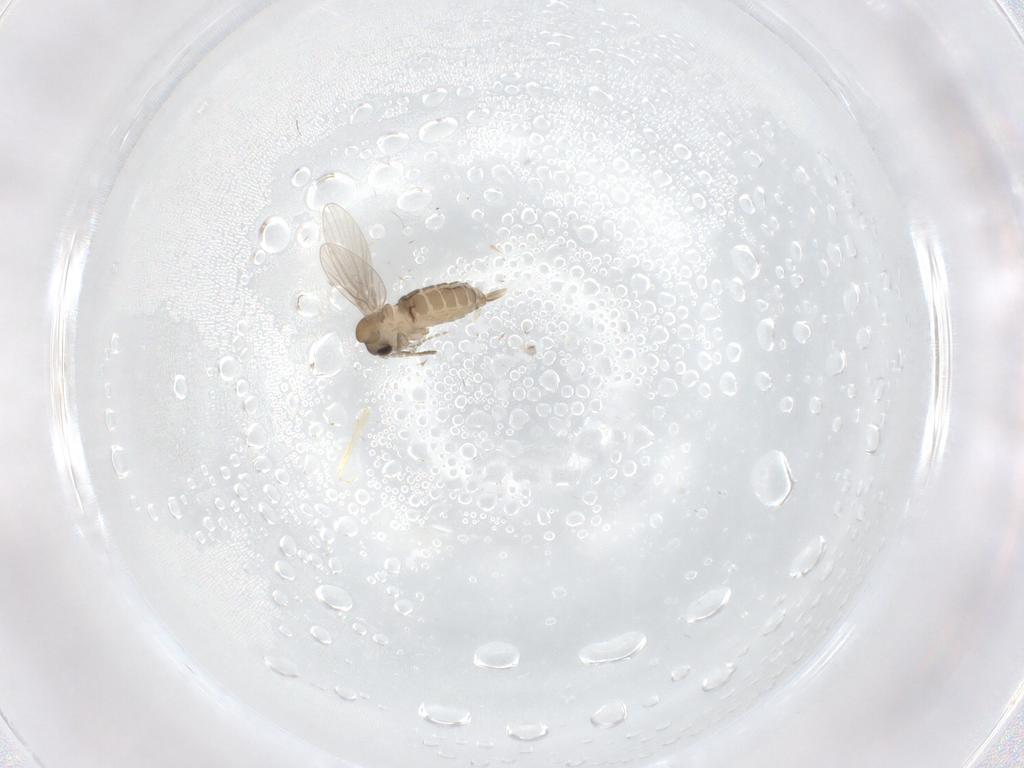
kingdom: Animalia
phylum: Arthropoda
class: Insecta
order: Diptera
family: Cecidomyiidae
